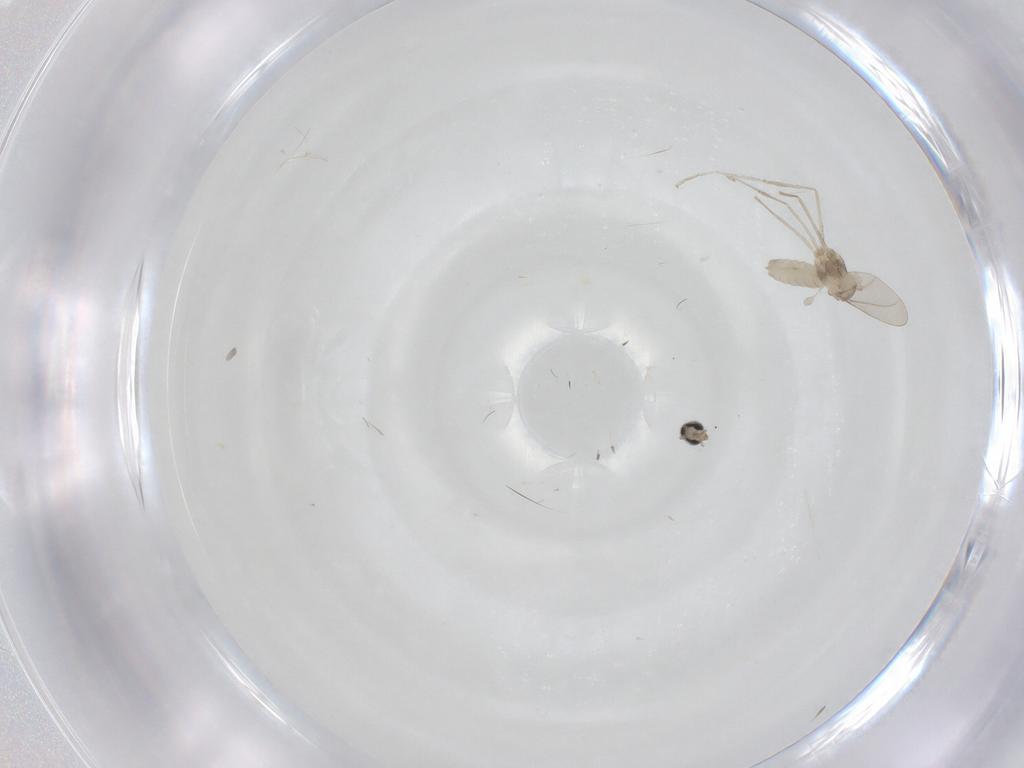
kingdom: Animalia
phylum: Arthropoda
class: Insecta
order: Diptera
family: Cecidomyiidae
